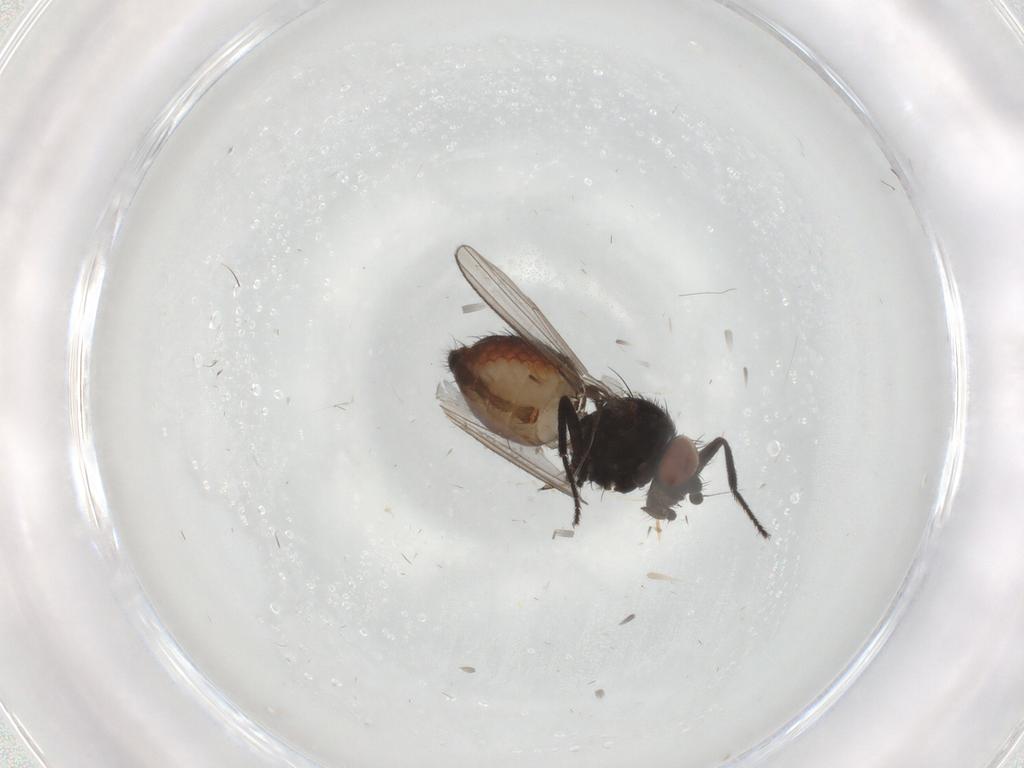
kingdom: Animalia
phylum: Arthropoda
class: Insecta
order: Diptera
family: Milichiidae
